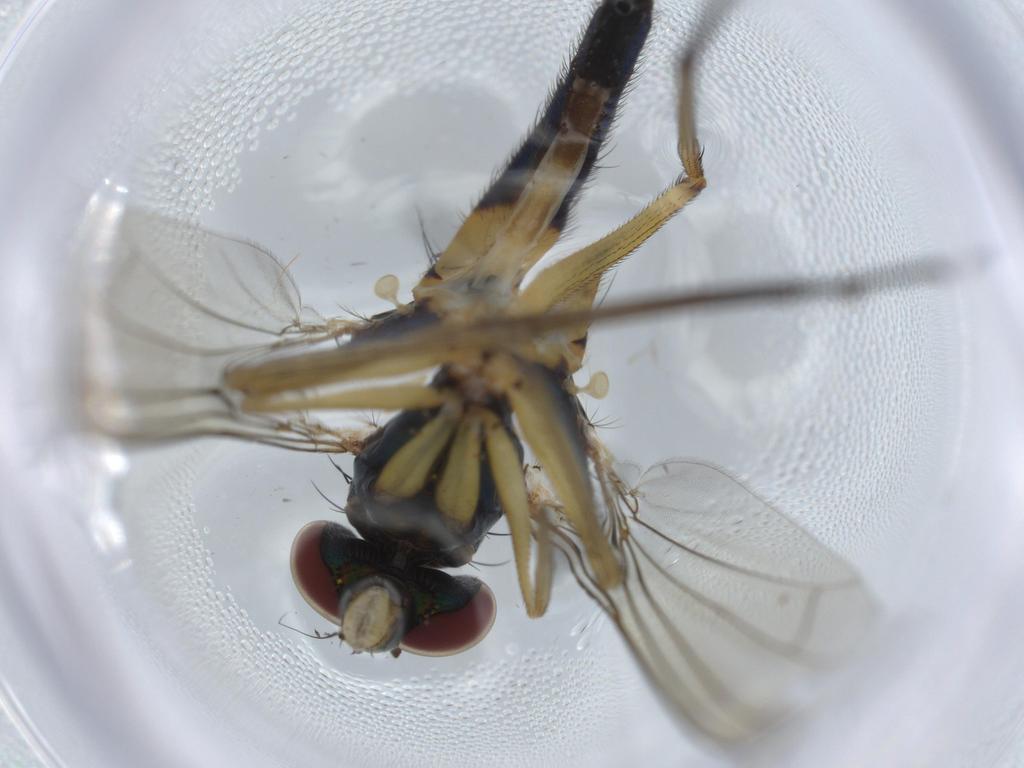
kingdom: Animalia
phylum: Arthropoda
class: Insecta
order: Diptera
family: Dolichopodidae
